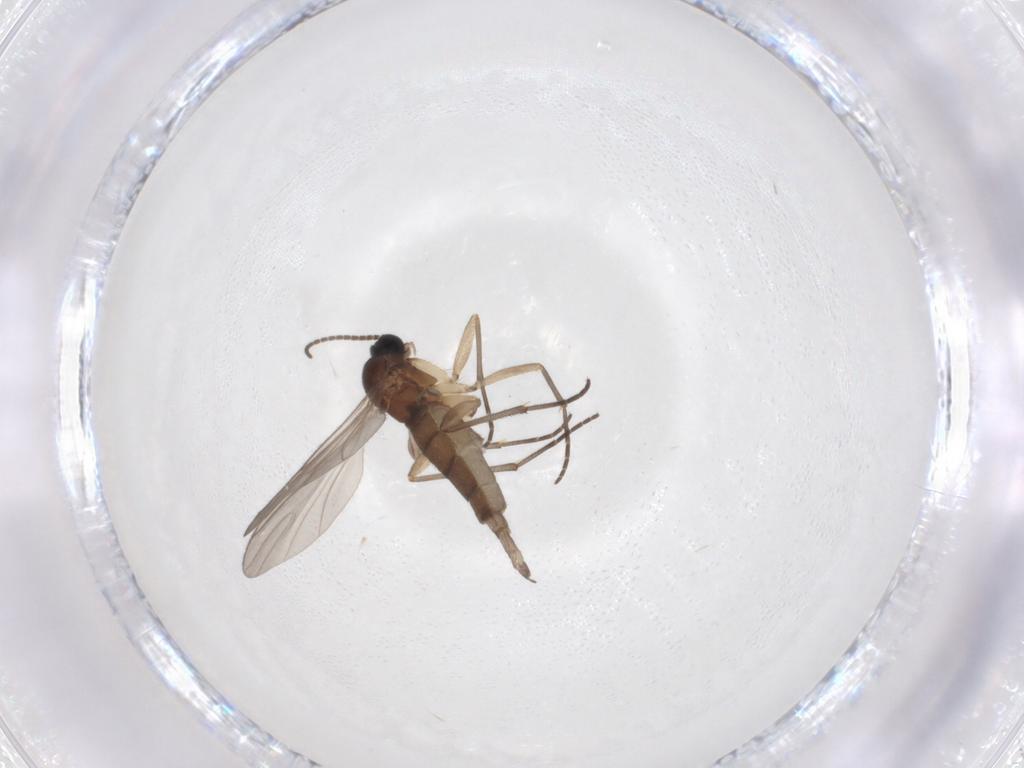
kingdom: Animalia
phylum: Arthropoda
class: Insecta
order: Diptera
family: Sciaridae
